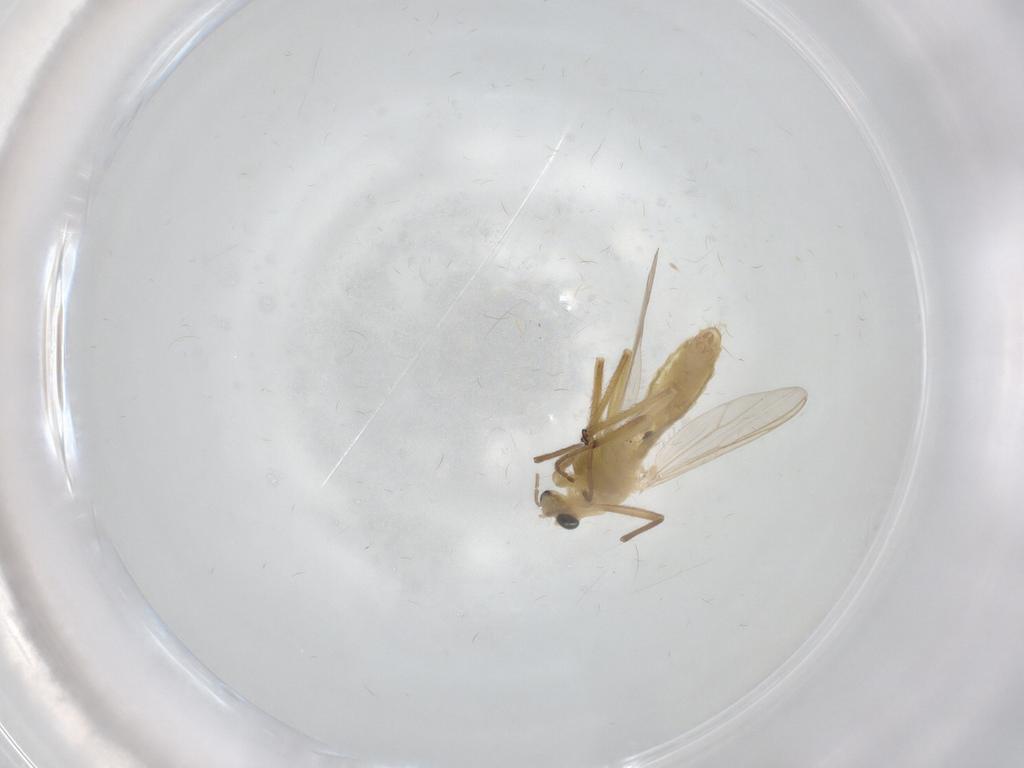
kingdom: Animalia
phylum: Arthropoda
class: Insecta
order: Diptera
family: Chironomidae
